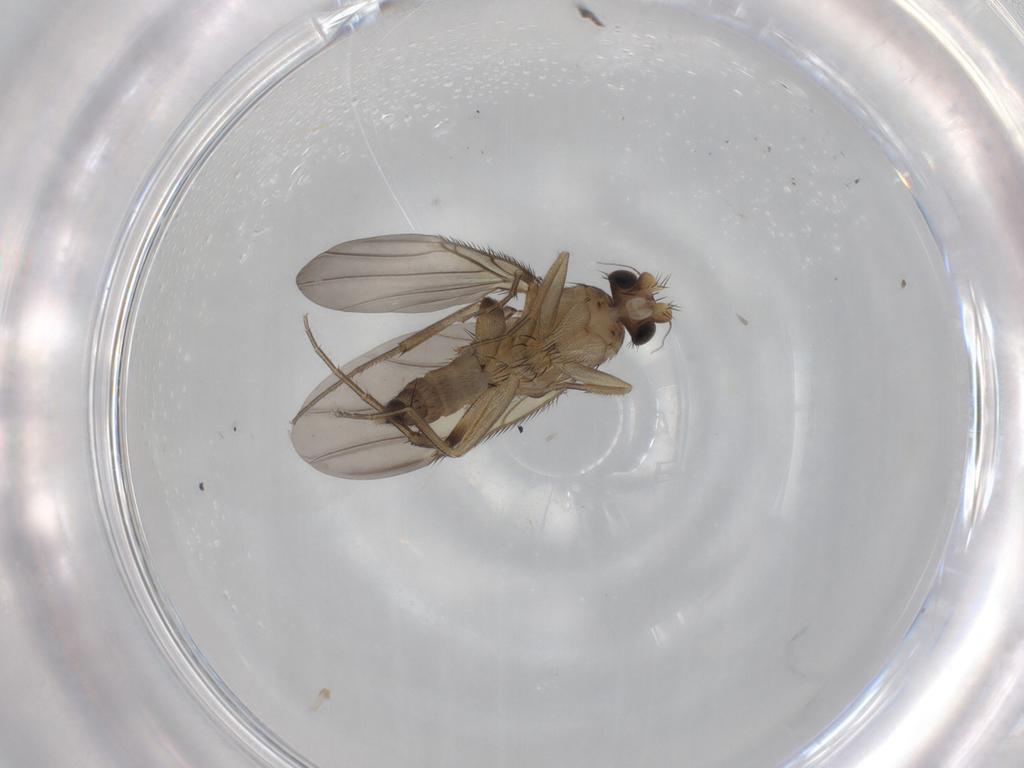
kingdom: Animalia
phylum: Arthropoda
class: Insecta
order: Diptera
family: Phoridae
